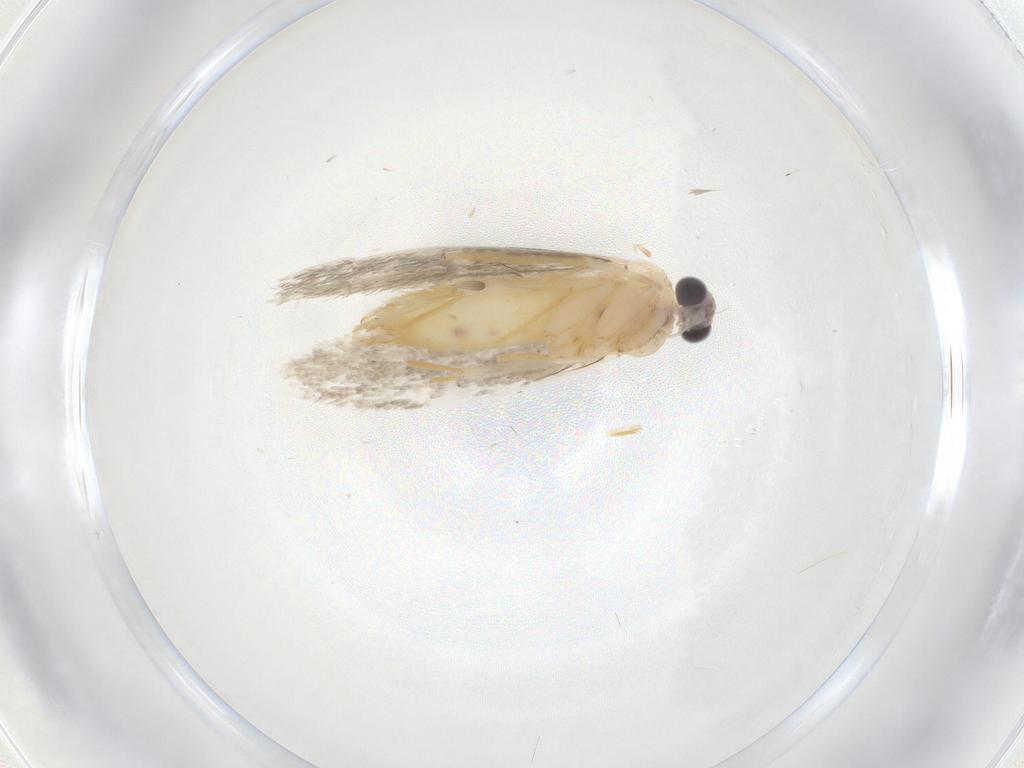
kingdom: Animalia
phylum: Arthropoda
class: Insecta
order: Lepidoptera
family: Tineidae
